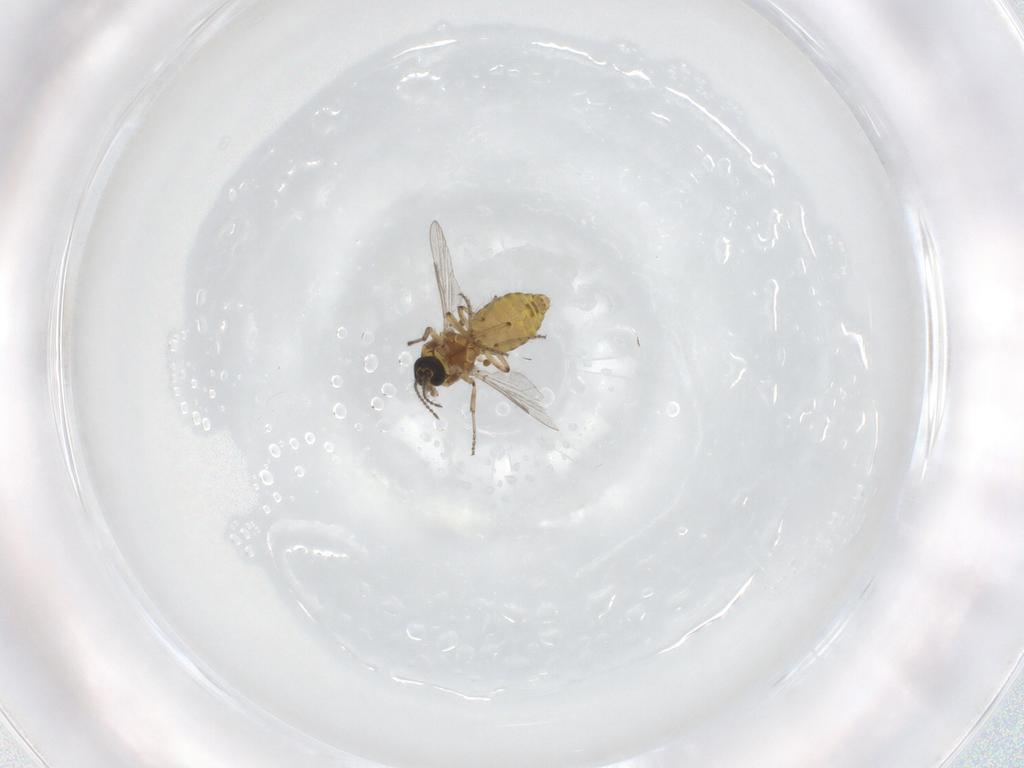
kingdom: Animalia
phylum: Arthropoda
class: Insecta
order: Diptera
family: Ceratopogonidae
